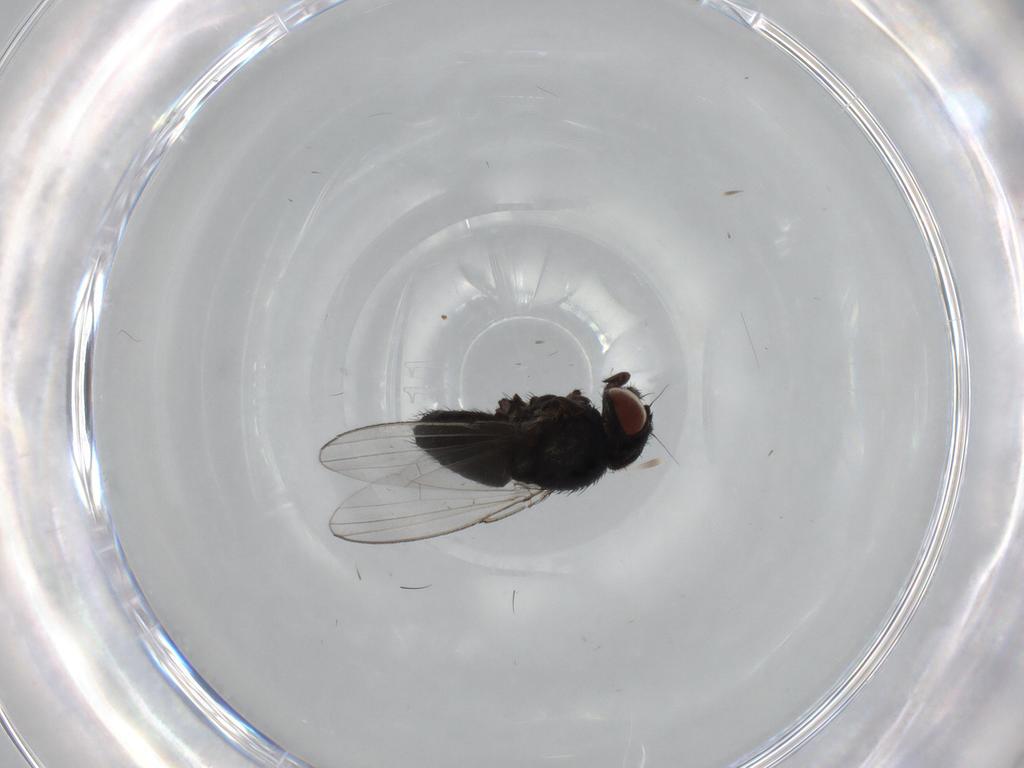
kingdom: Animalia
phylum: Arthropoda
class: Insecta
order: Diptera
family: Milichiidae
